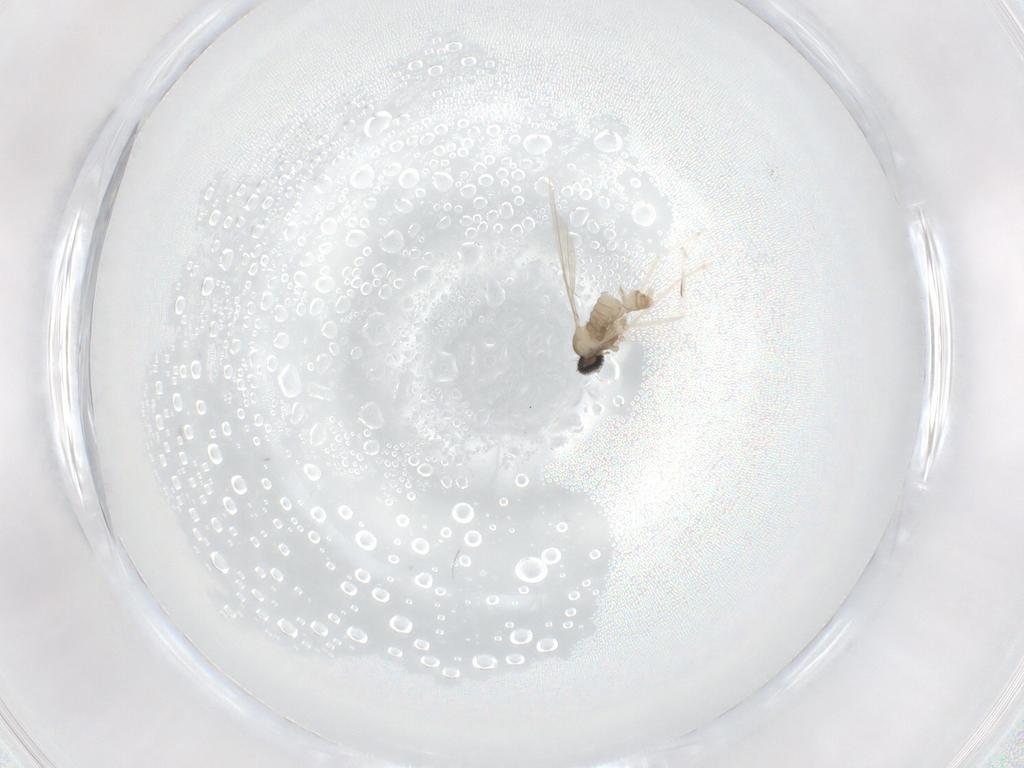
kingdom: Animalia
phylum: Arthropoda
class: Insecta
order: Diptera
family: Cecidomyiidae
